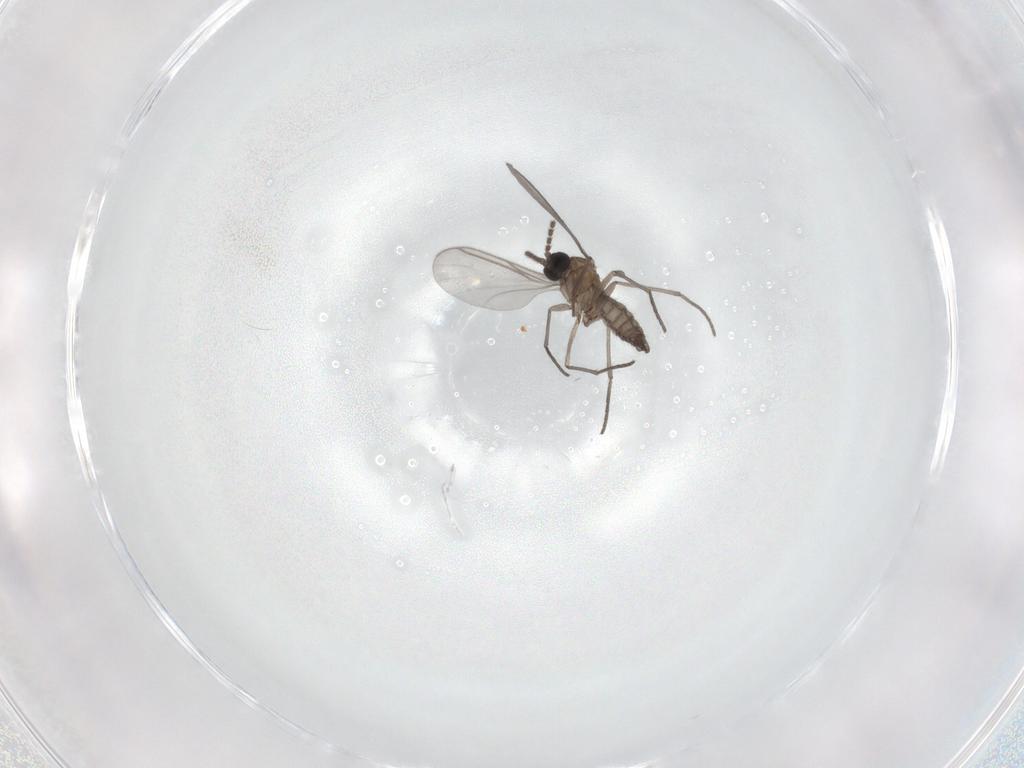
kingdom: Animalia
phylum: Arthropoda
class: Insecta
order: Diptera
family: Chironomidae
